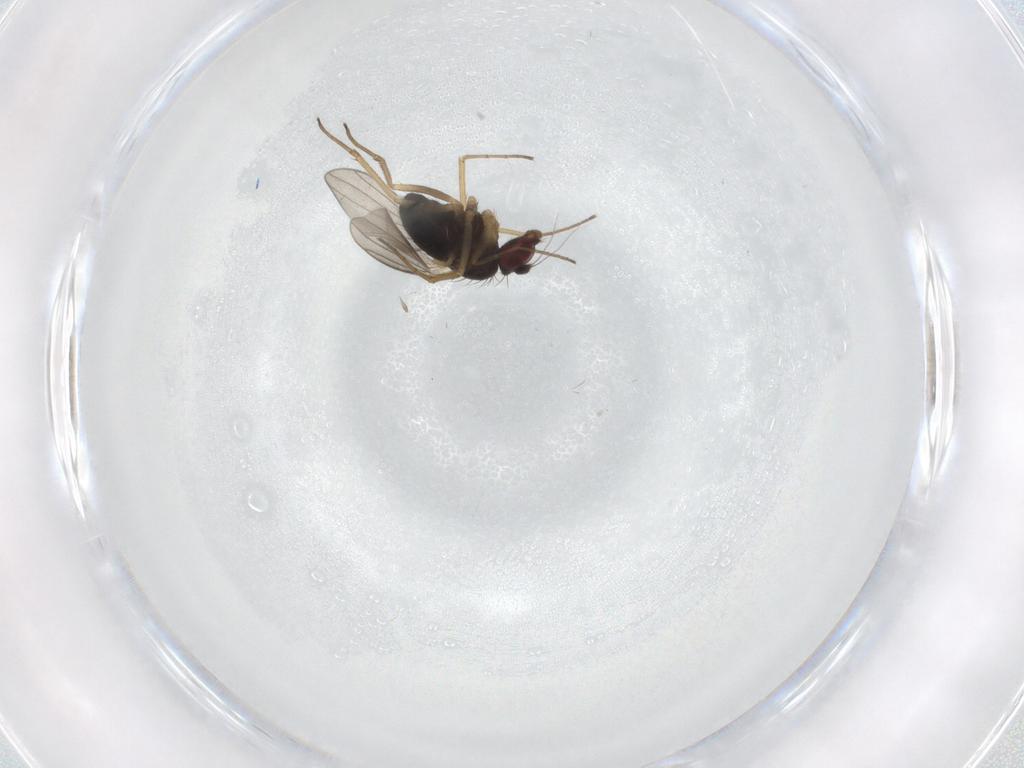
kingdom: Animalia
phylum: Arthropoda
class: Insecta
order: Diptera
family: Dolichopodidae
